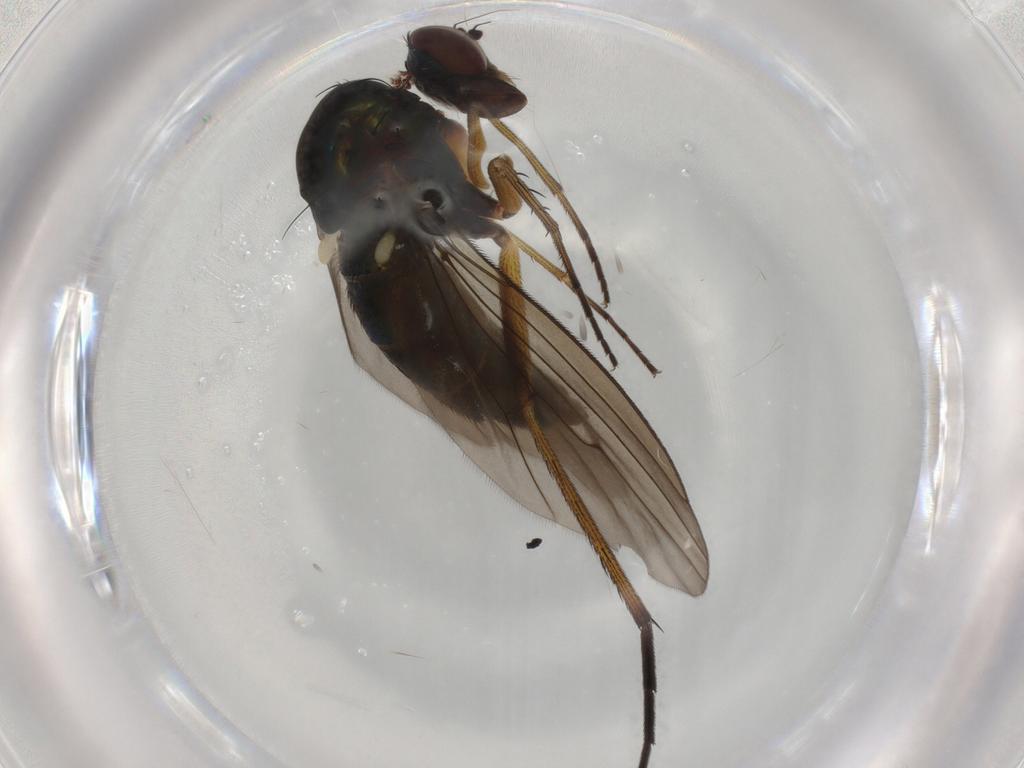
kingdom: Animalia
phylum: Arthropoda
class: Insecta
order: Diptera
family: Dolichopodidae
